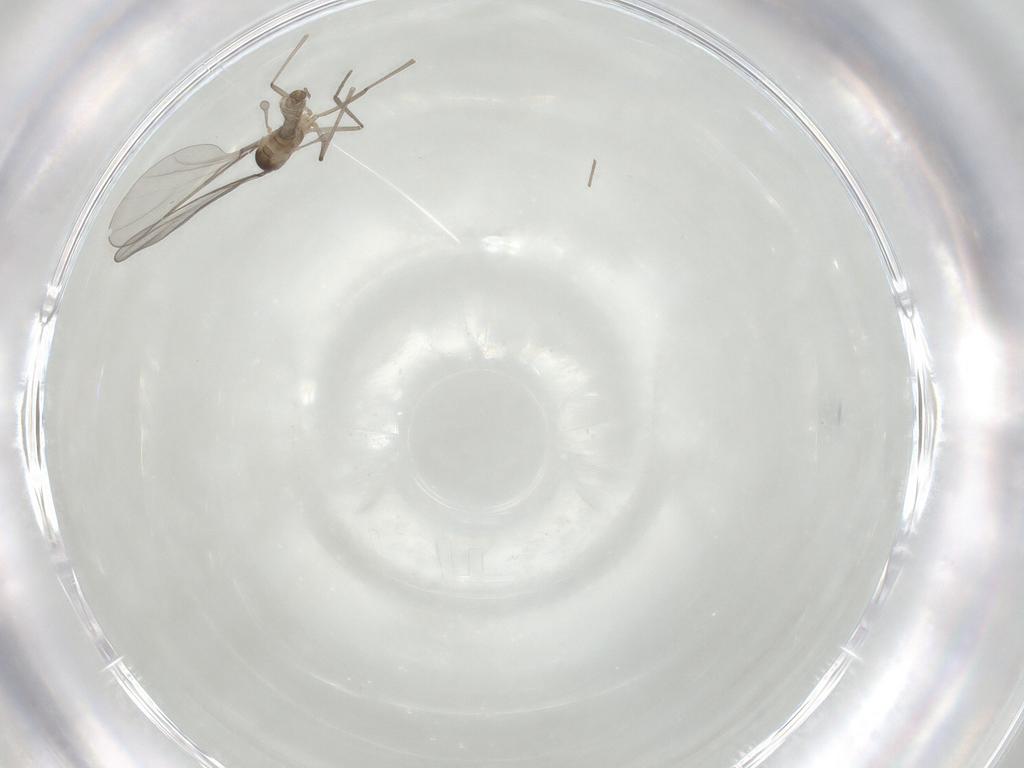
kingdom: Animalia
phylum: Arthropoda
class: Insecta
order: Diptera
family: Cecidomyiidae
